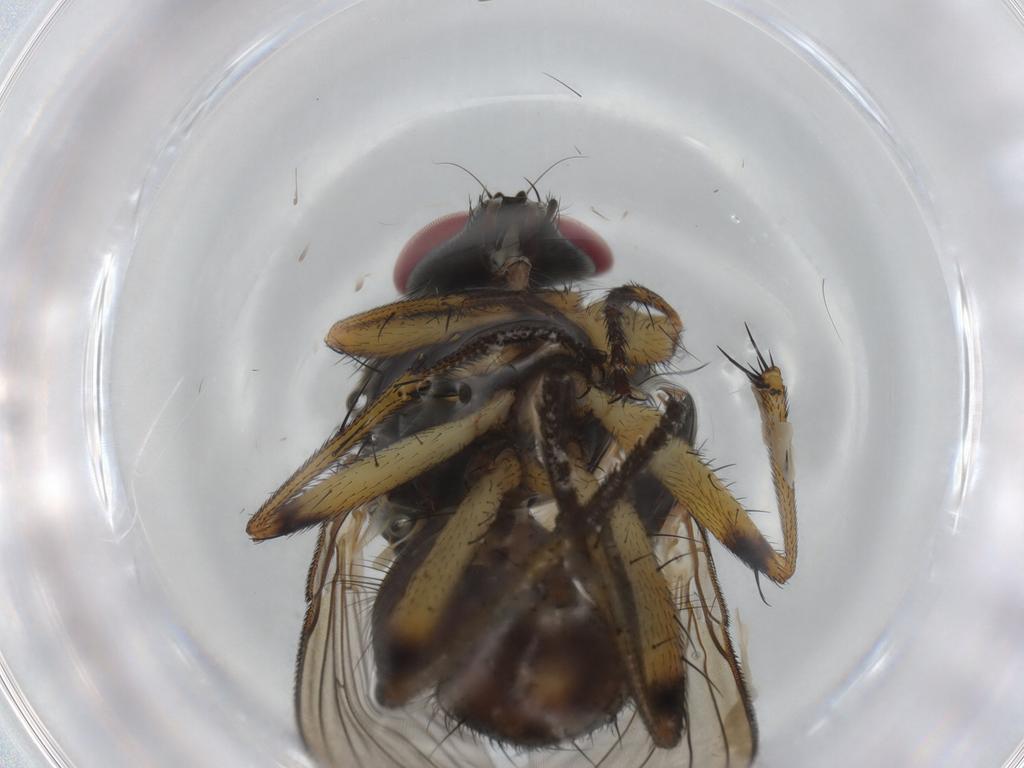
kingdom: Animalia
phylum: Arthropoda
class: Insecta
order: Diptera
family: Muscidae
